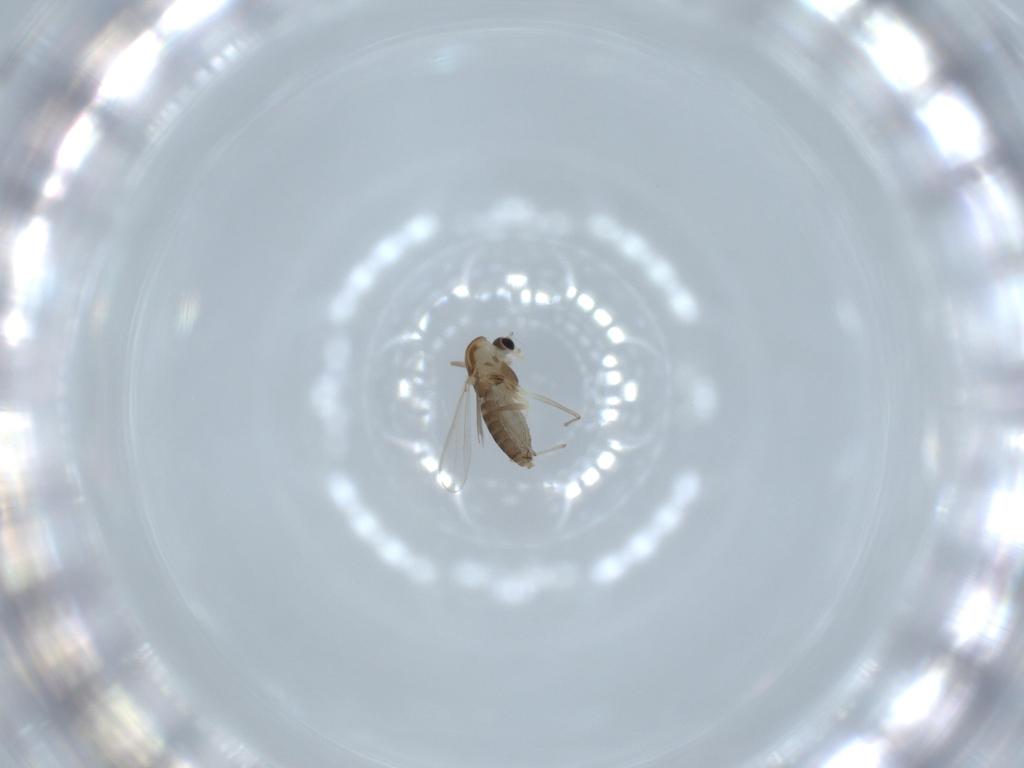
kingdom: Animalia
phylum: Arthropoda
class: Insecta
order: Diptera
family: Chironomidae
